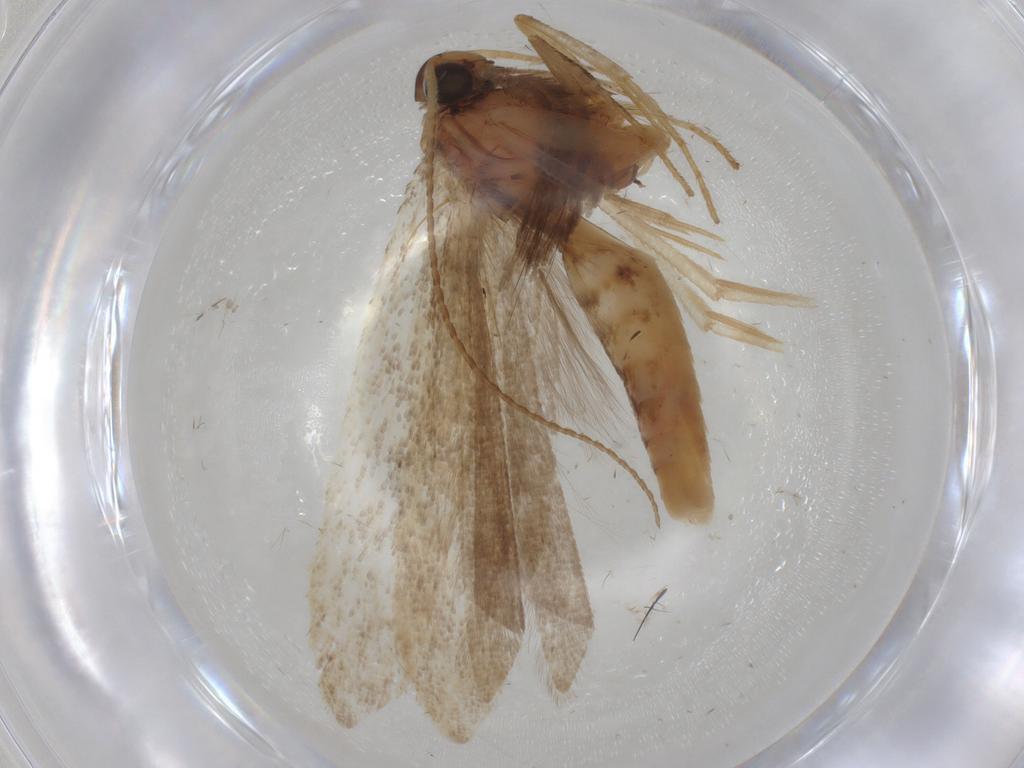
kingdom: Animalia
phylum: Arthropoda
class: Insecta
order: Lepidoptera
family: Gelechiidae
